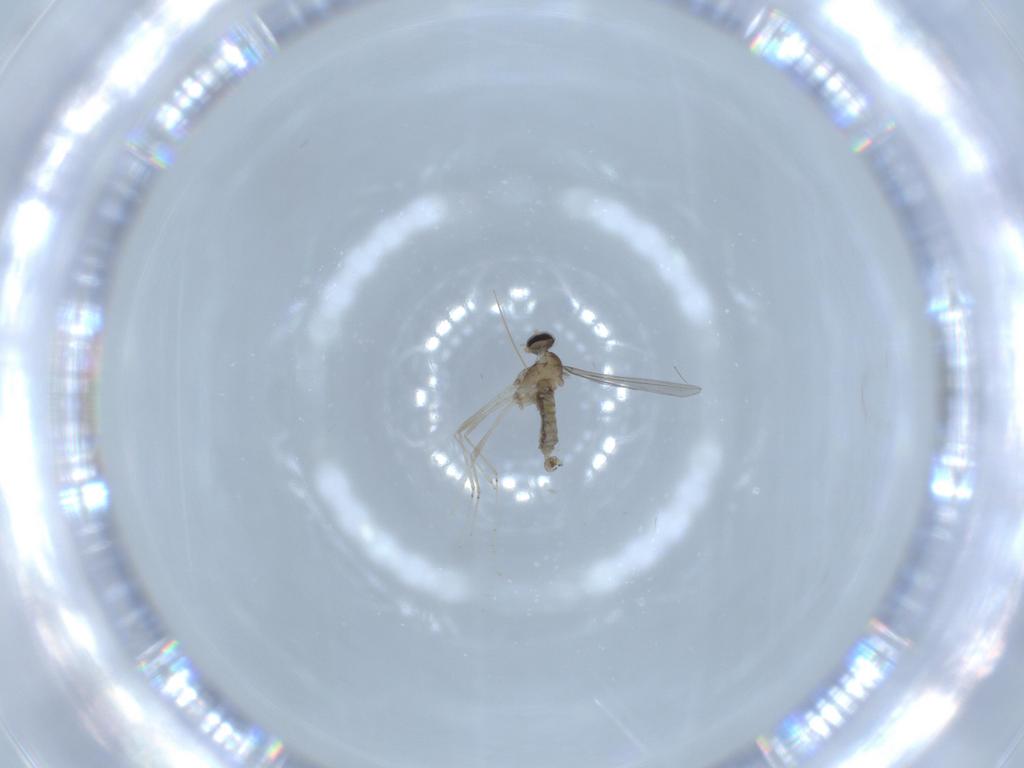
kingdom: Animalia
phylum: Arthropoda
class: Insecta
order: Diptera
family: Cecidomyiidae
